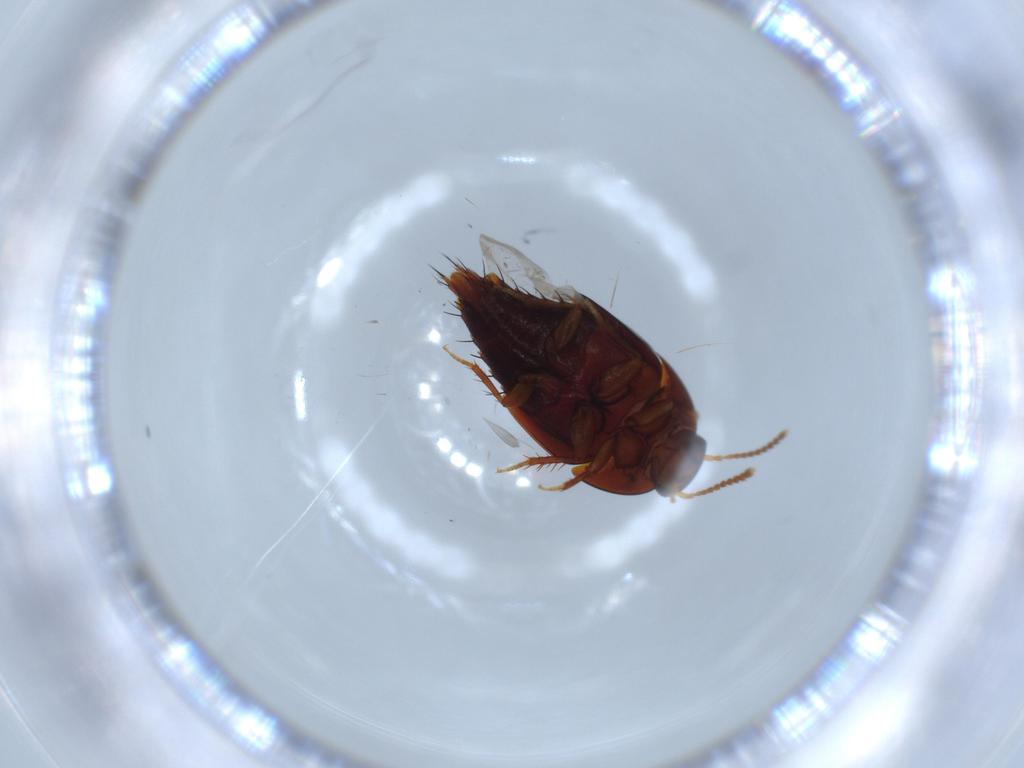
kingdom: Animalia
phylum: Arthropoda
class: Insecta
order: Coleoptera
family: Staphylinidae
